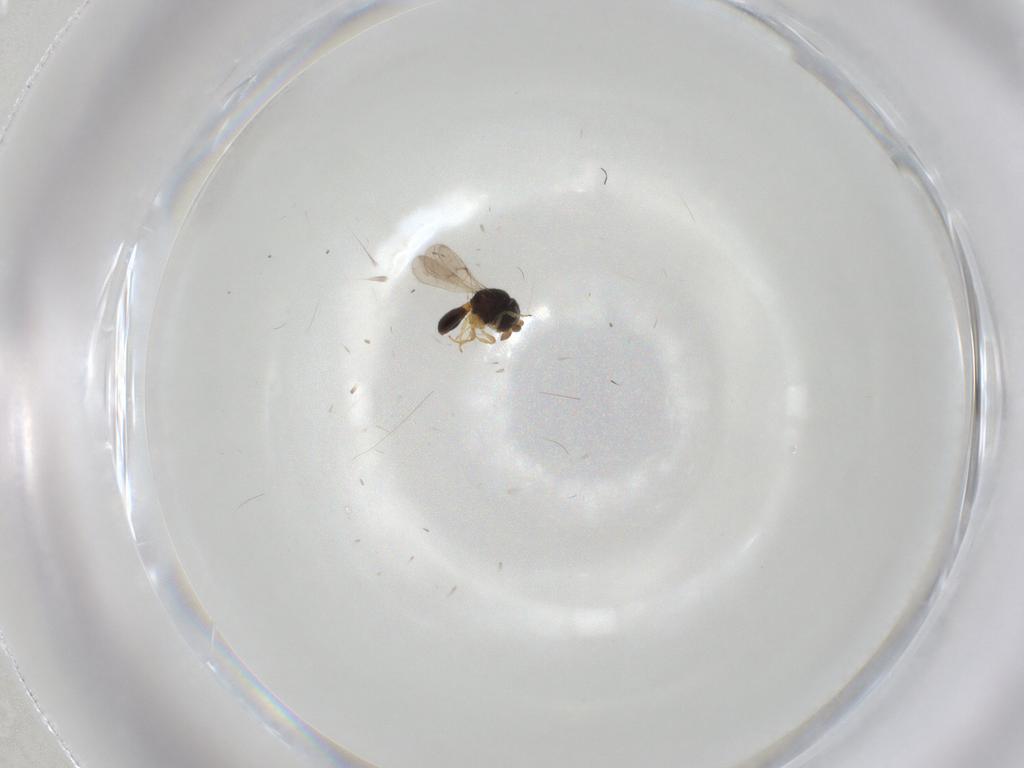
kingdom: Animalia
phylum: Arthropoda
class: Insecta
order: Hymenoptera
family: Scelionidae
